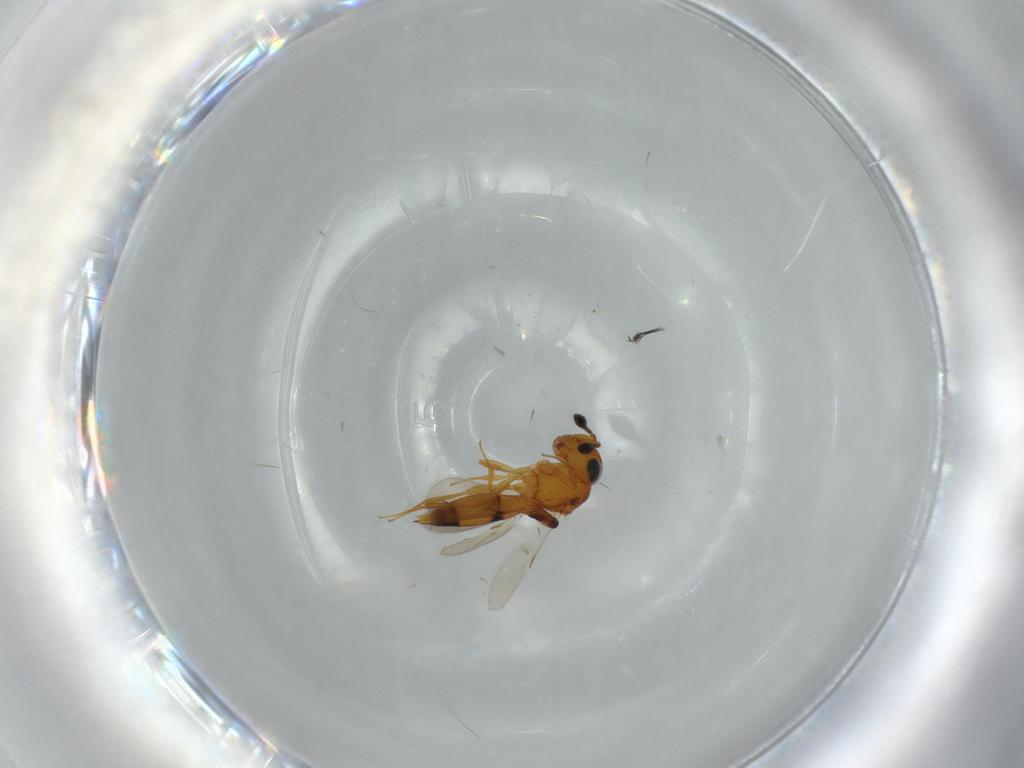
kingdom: Animalia
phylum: Arthropoda
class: Insecta
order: Hymenoptera
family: Scelionidae
